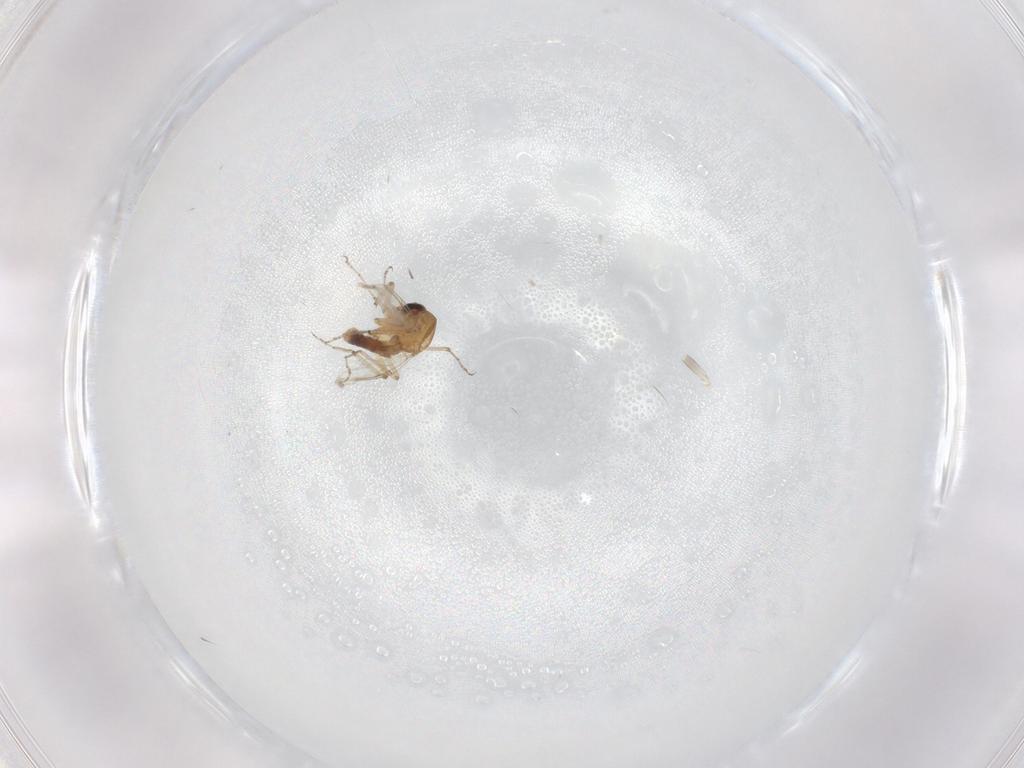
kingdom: Animalia
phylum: Arthropoda
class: Insecta
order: Diptera
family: Ceratopogonidae
